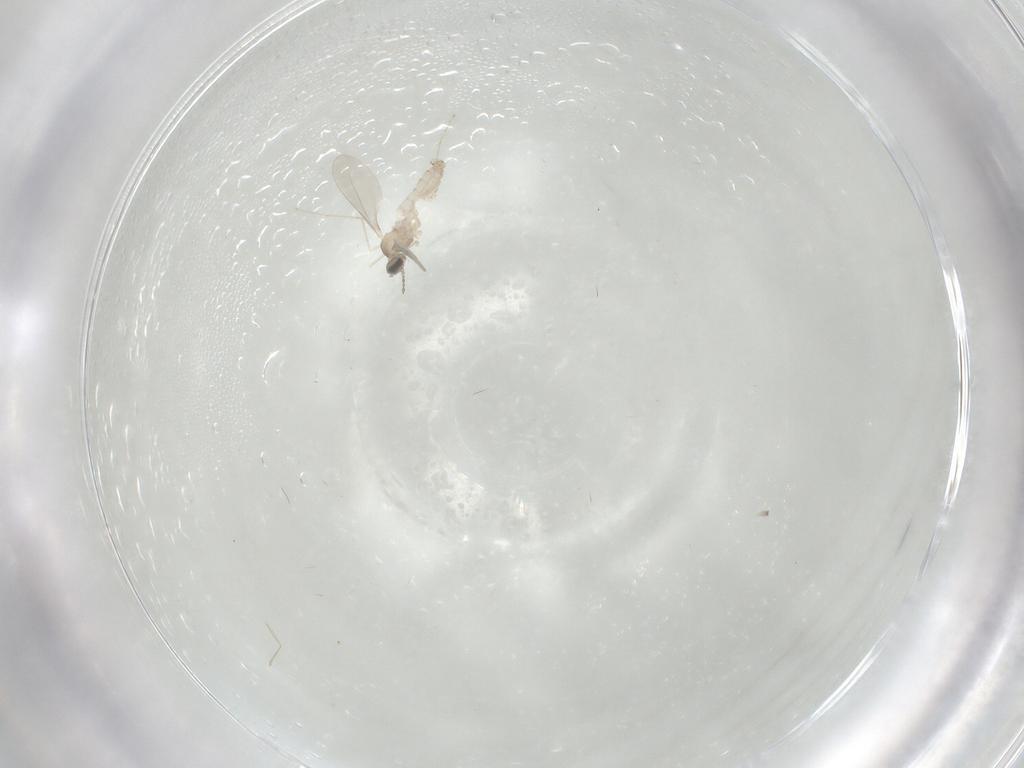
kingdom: Animalia
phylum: Arthropoda
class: Insecta
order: Diptera
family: Cecidomyiidae
